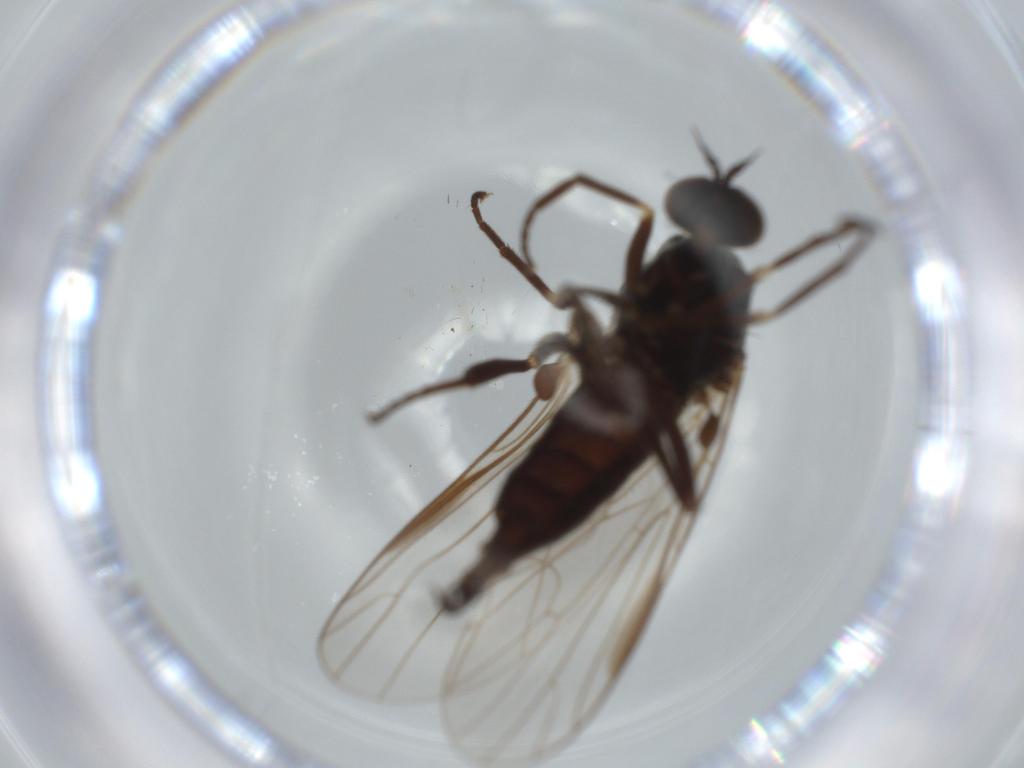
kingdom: Animalia
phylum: Arthropoda
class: Insecta
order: Diptera
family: Empididae
